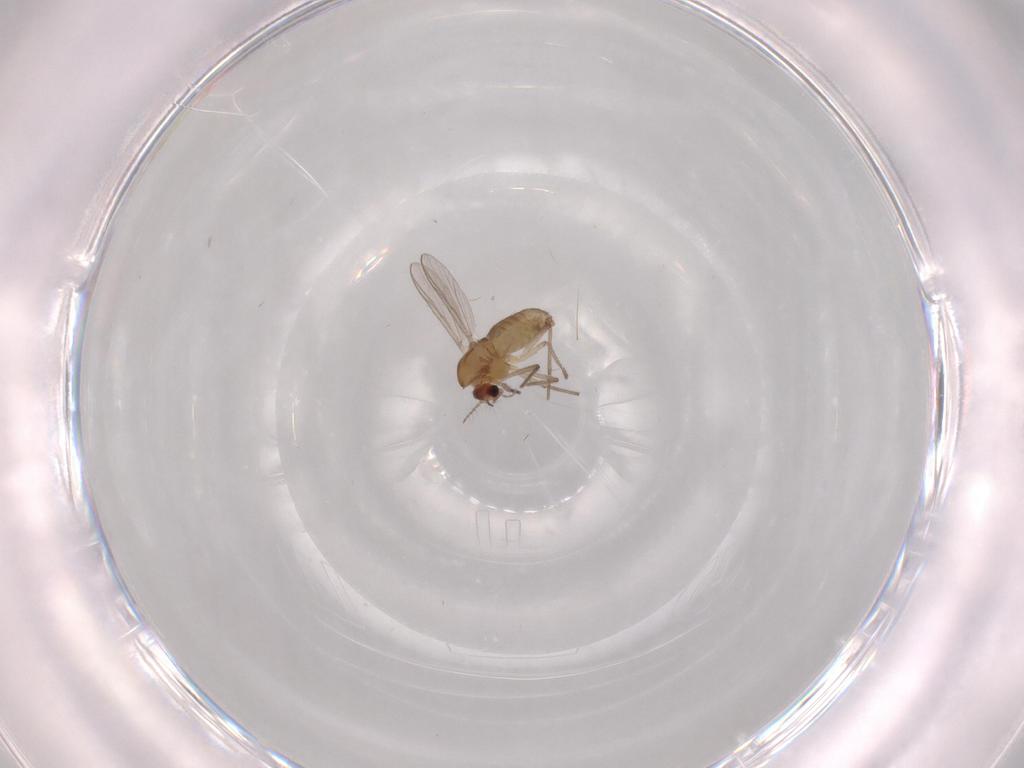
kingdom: Animalia
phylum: Arthropoda
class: Insecta
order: Diptera
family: Chironomidae
